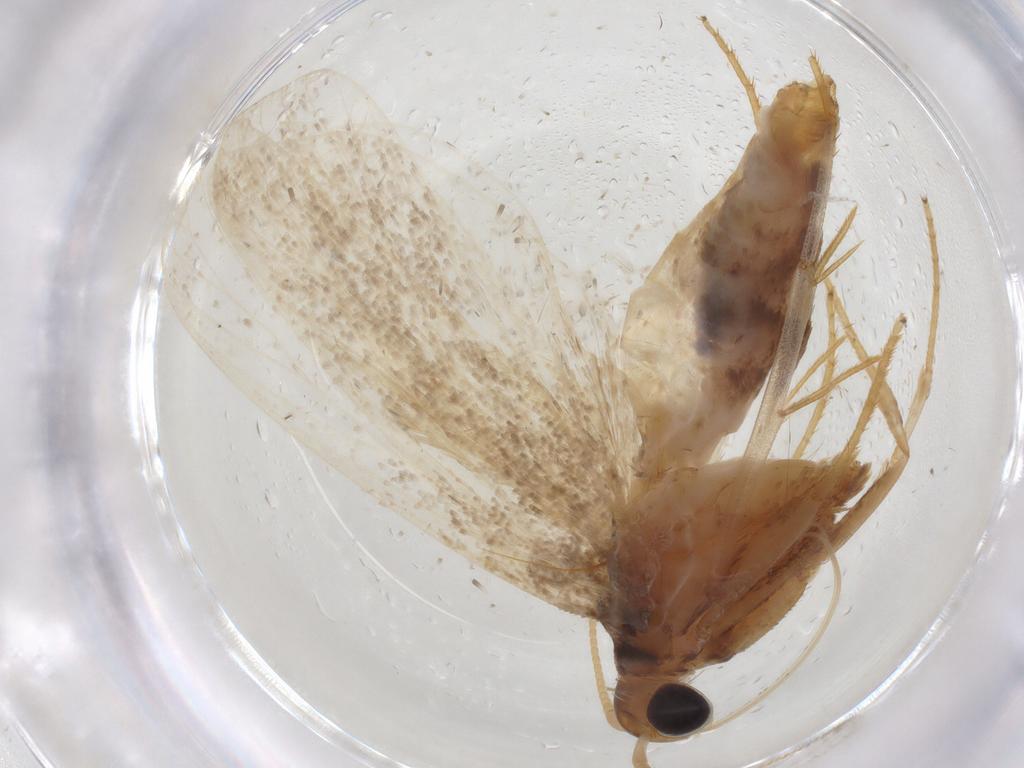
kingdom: Animalia
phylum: Arthropoda
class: Insecta
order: Lepidoptera
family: Lecithoceridae
